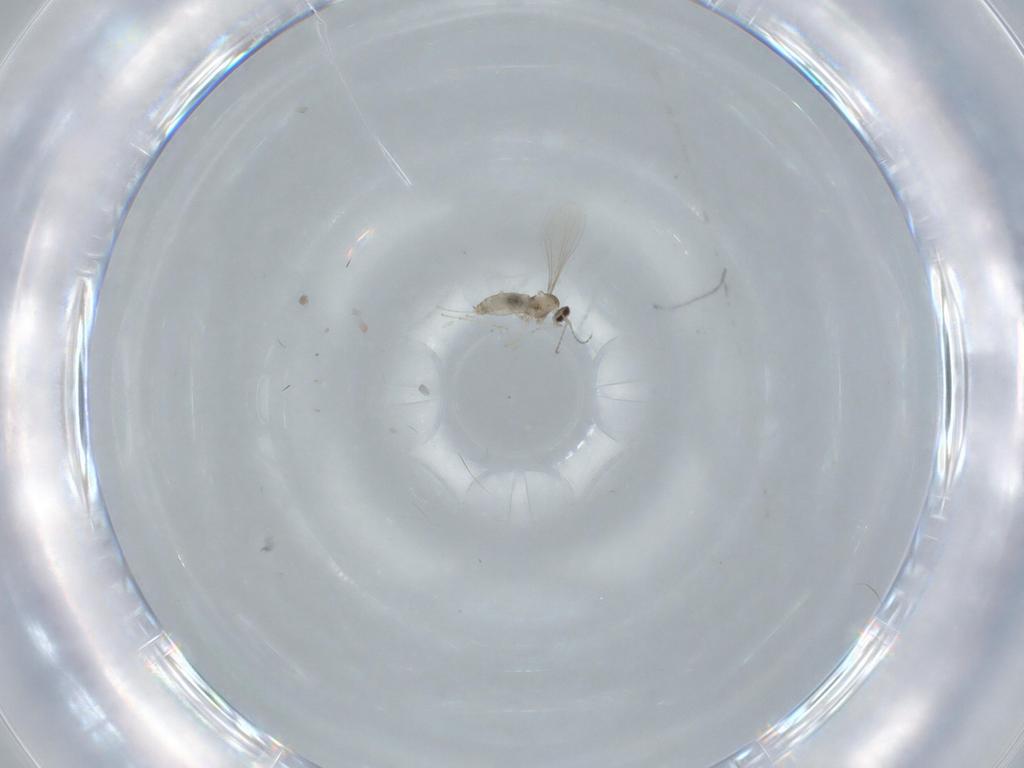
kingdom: Animalia
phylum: Arthropoda
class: Insecta
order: Diptera
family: Cecidomyiidae
